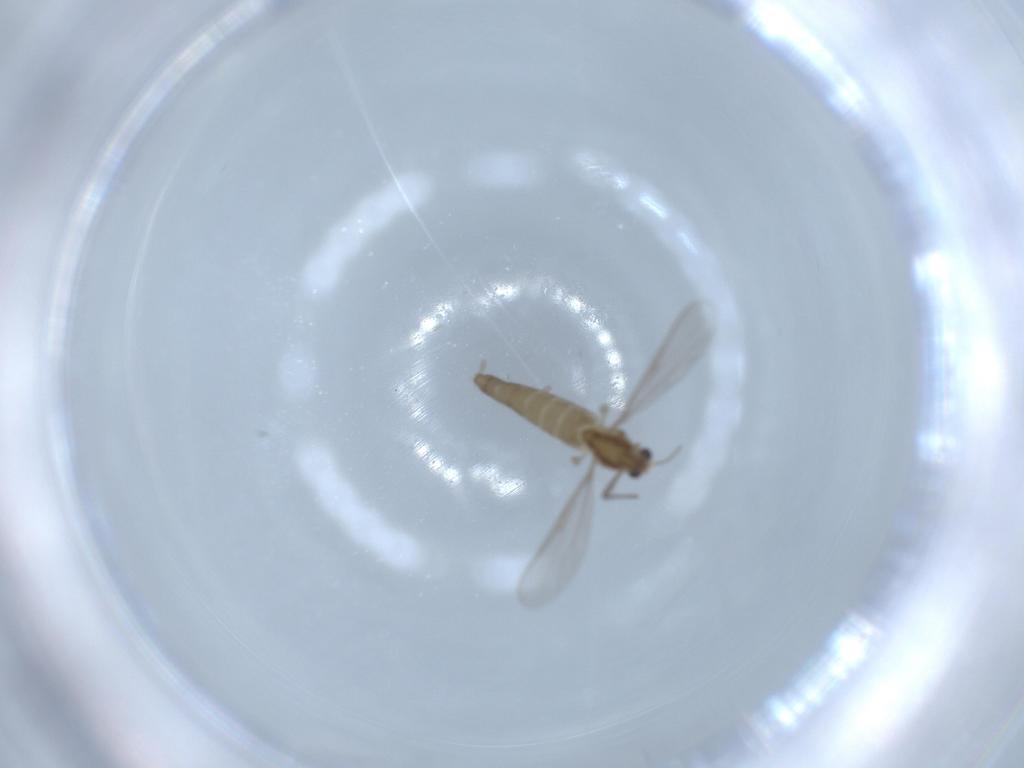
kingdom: Animalia
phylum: Arthropoda
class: Insecta
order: Diptera
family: Chironomidae
